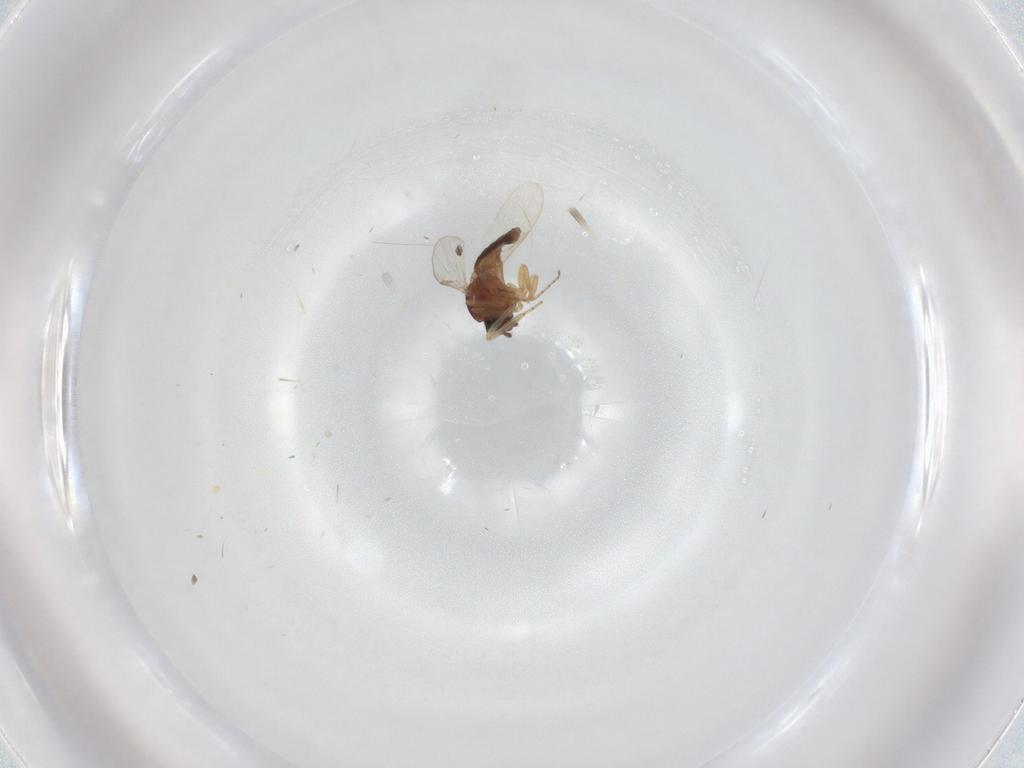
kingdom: Animalia
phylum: Arthropoda
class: Insecta
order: Diptera
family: Ceratopogonidae
